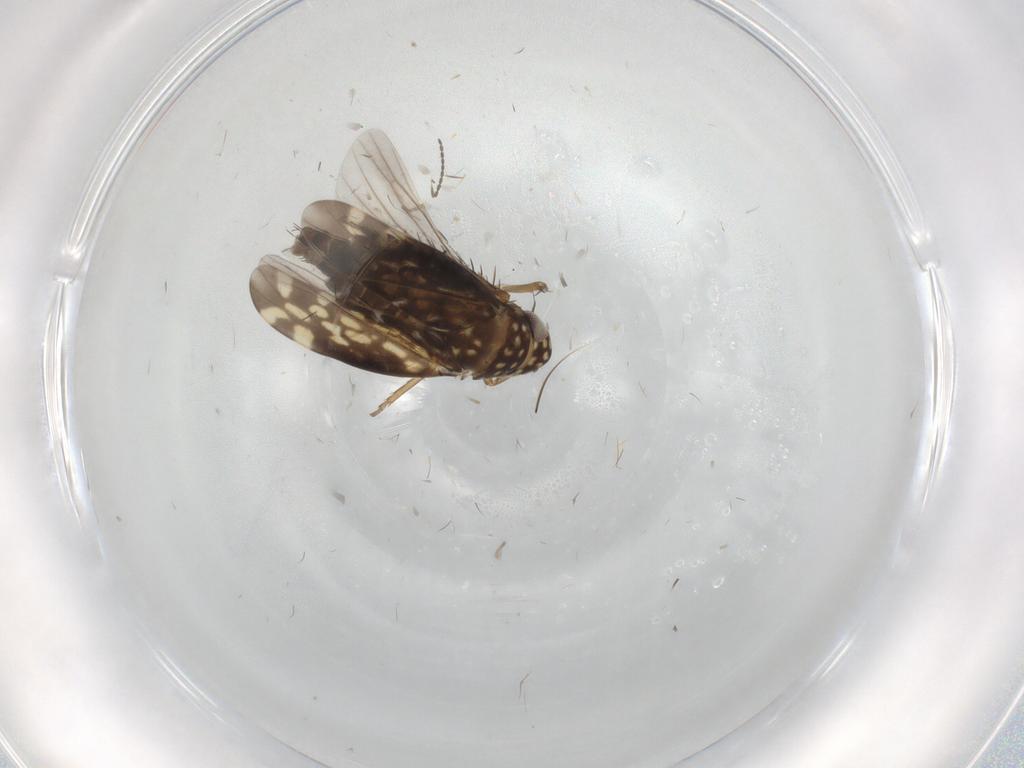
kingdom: Animalia
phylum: Arthropoda
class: Insecta
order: Hemiptera
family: Cicadellidae
